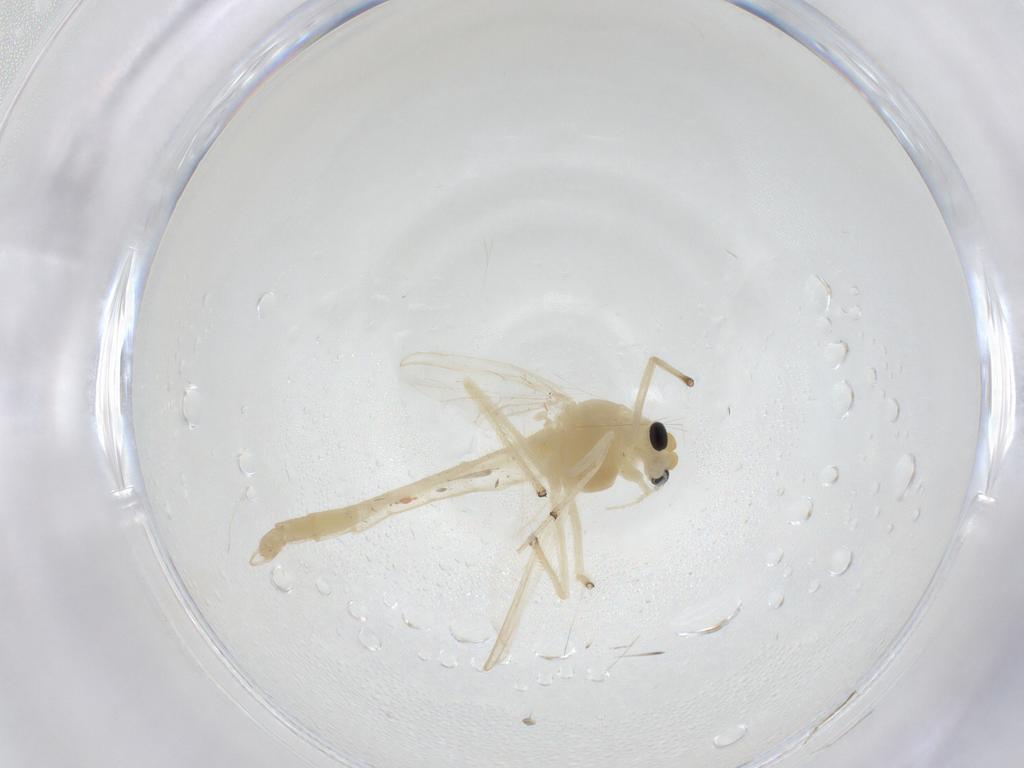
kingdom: Animalia
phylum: Arthropoda
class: Insecta
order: Diptera
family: Chironomidae
